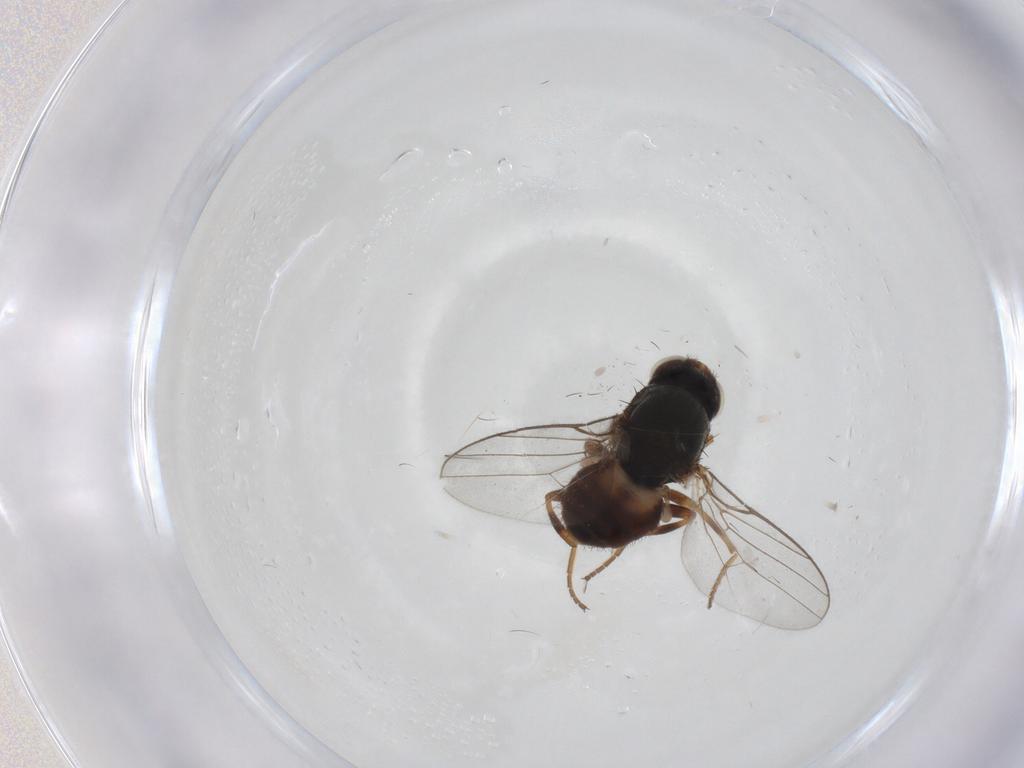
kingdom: Animalia
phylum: Arthropoda
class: Insecta
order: Diptera
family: Chloropidae
